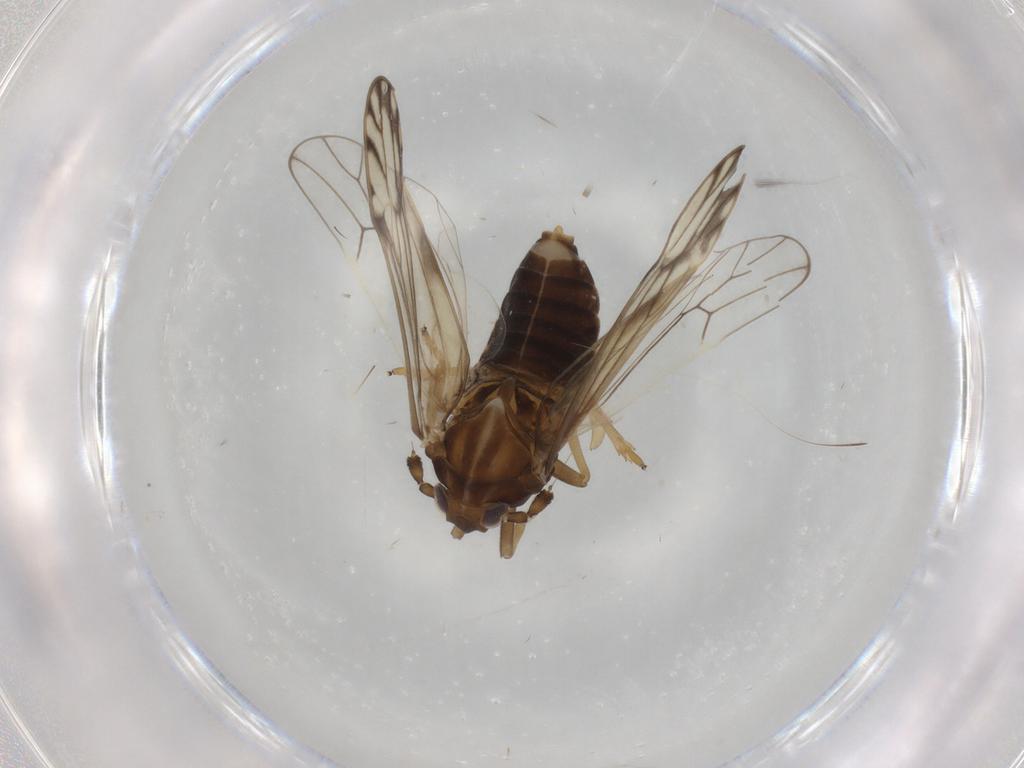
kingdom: Animalia
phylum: Arthropoda
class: Insecta
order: Hemiptera
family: Delphacidae
